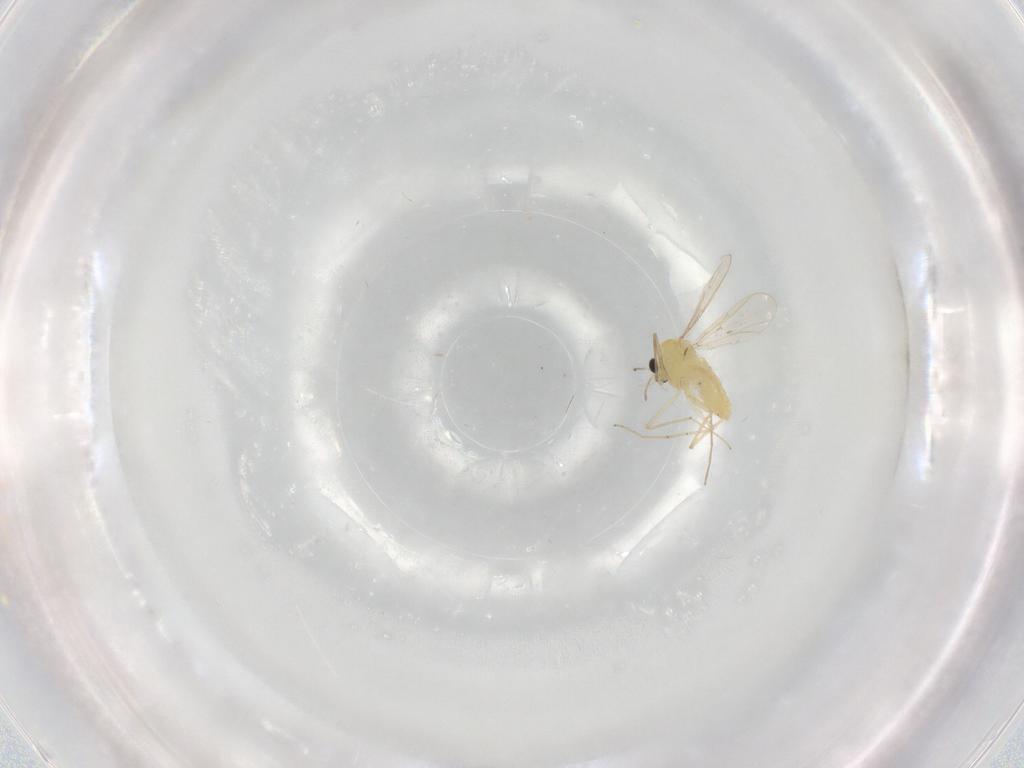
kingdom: Animalia
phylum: Arthropoda
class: Insecta
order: Diptera
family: Chironomidae
